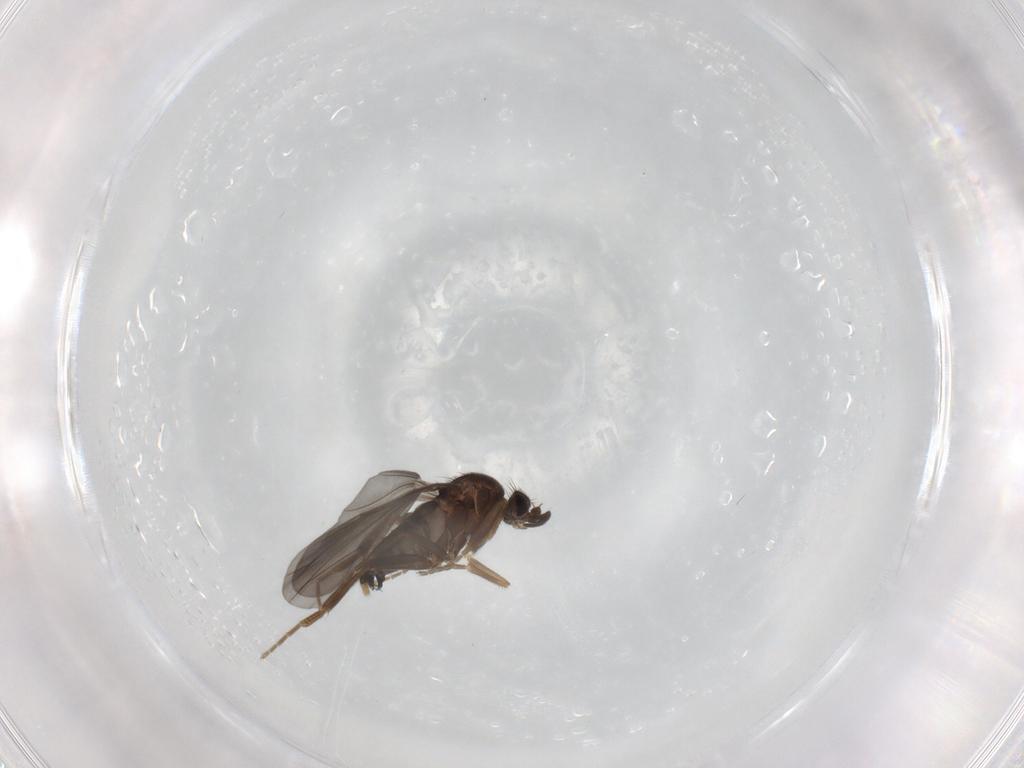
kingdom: Animalia
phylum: Arthropoda
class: Insecta
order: Diptera
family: Phoridae
